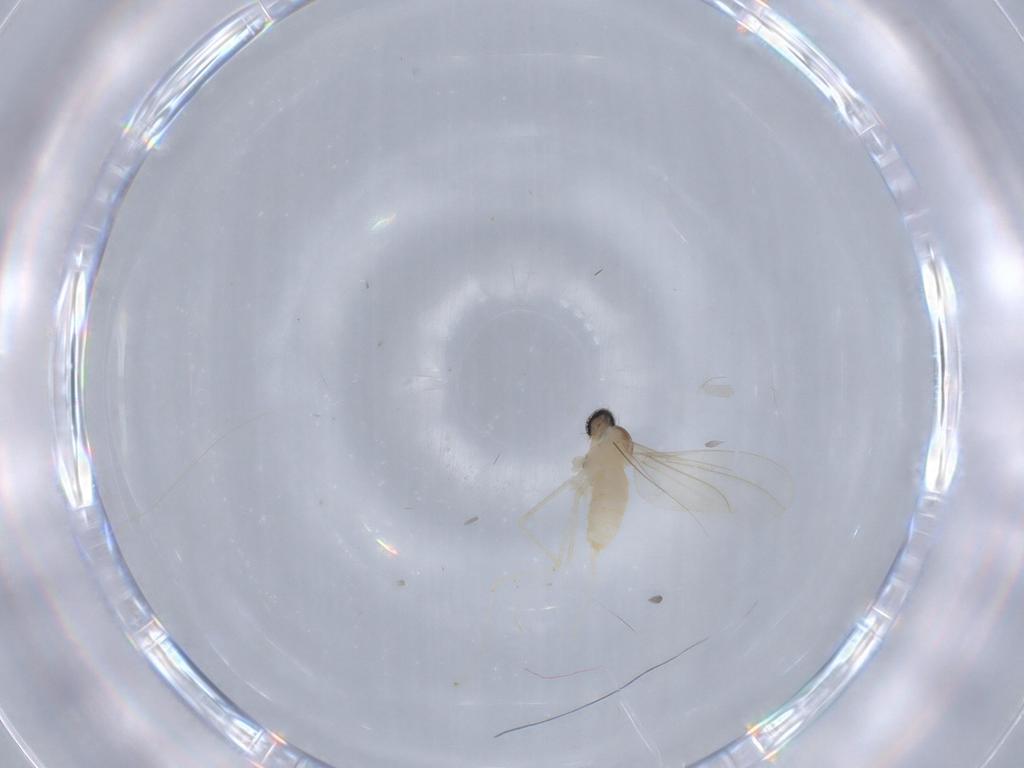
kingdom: Animalia
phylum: Arthropoda
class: Insecta
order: Diptera
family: Cecidomyiidae
